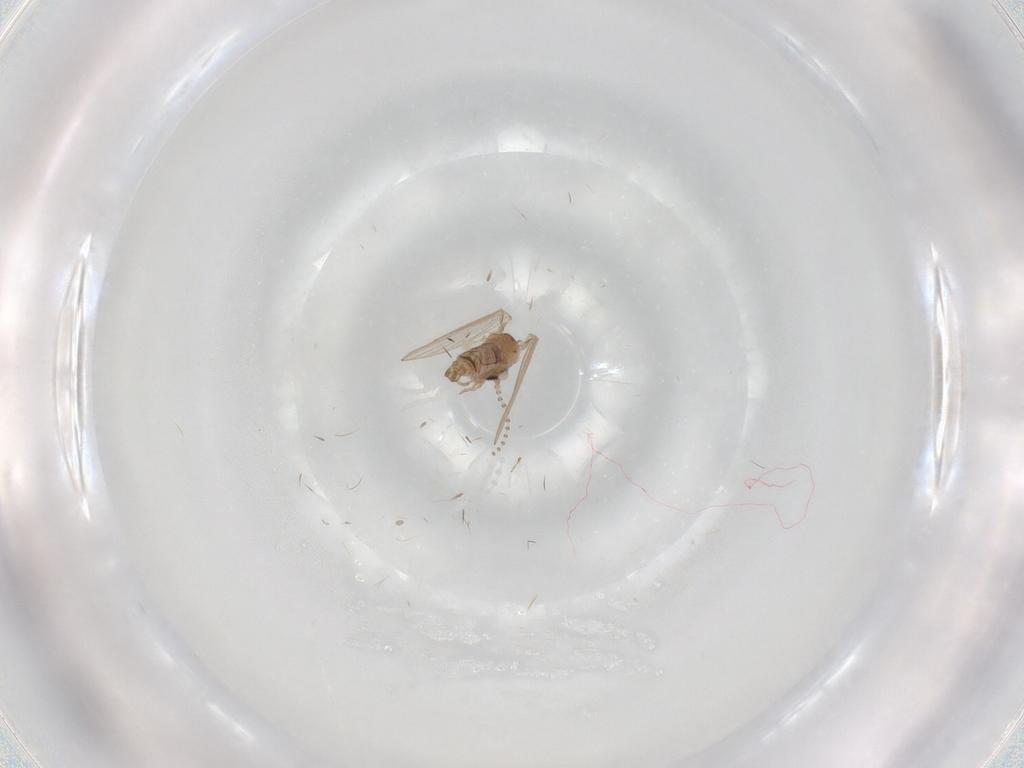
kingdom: Animalia
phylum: Arthropoda
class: Insecta
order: Diptera
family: Psychodidae
